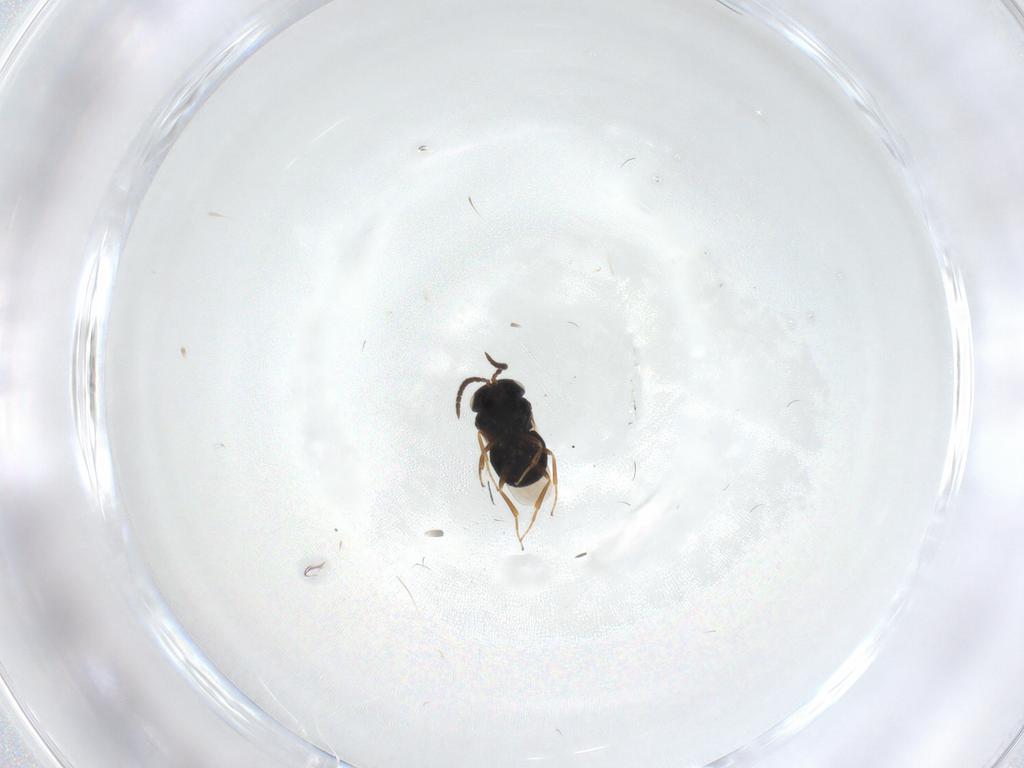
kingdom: Animalia
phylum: Arthropoda
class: Insecta
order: Hymenoptera
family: Scelionidae
